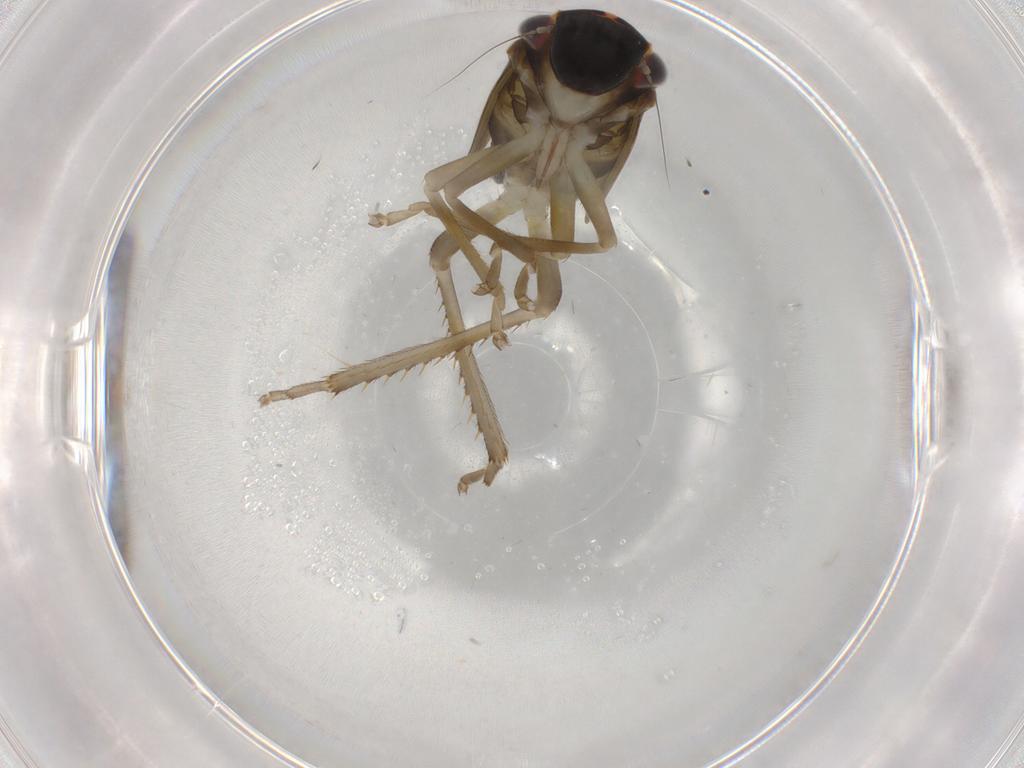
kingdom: Animalia
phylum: Arthropoda
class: Insecta
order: Hemiptera
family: Cicadellidae
